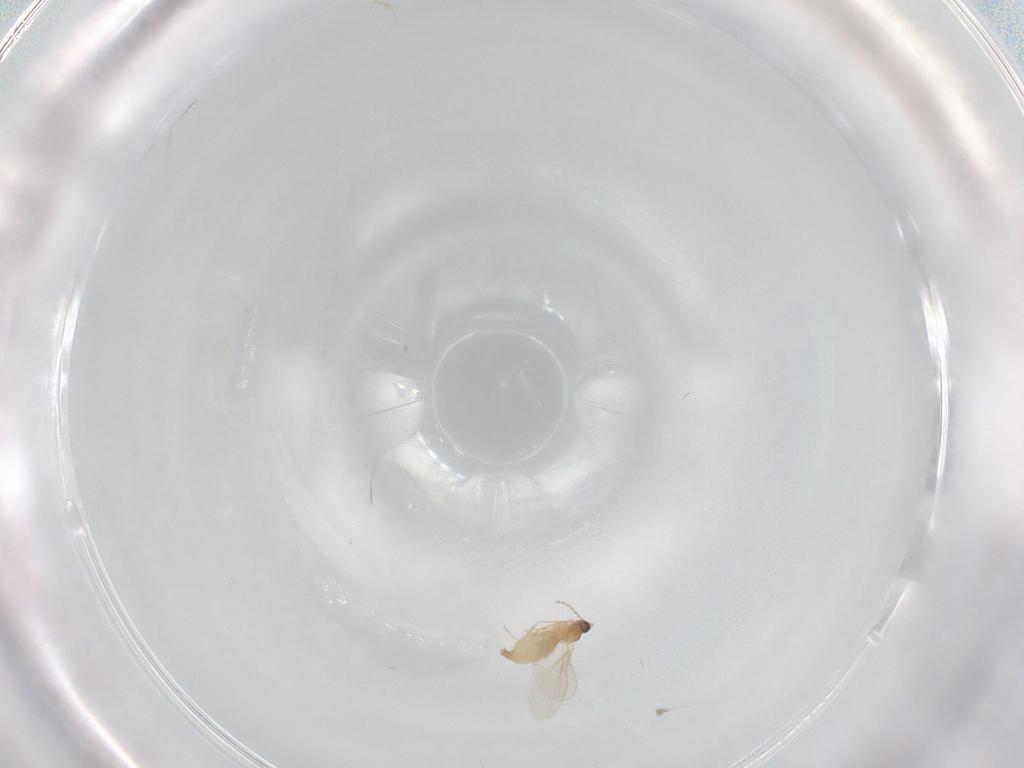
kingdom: Animalia
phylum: Arthropoda
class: Insecta
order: Diptera
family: Cecidomyiidae
